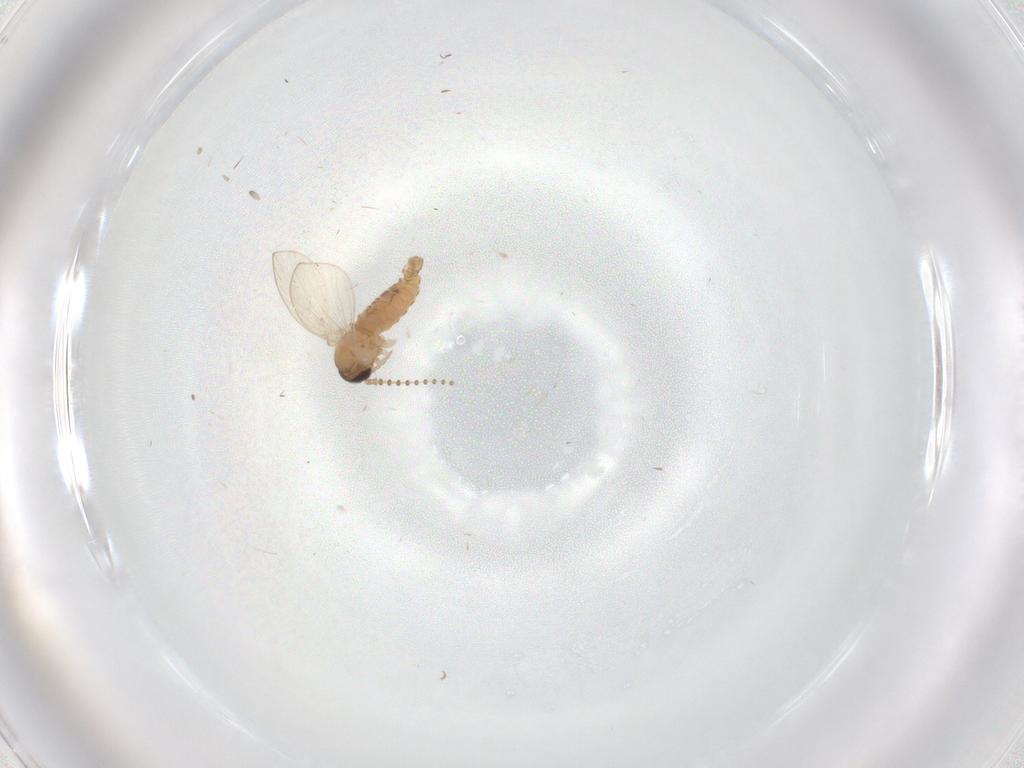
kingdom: Animalia
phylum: Arthropoda
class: Insecta
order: Diptera
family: Psychodidae
